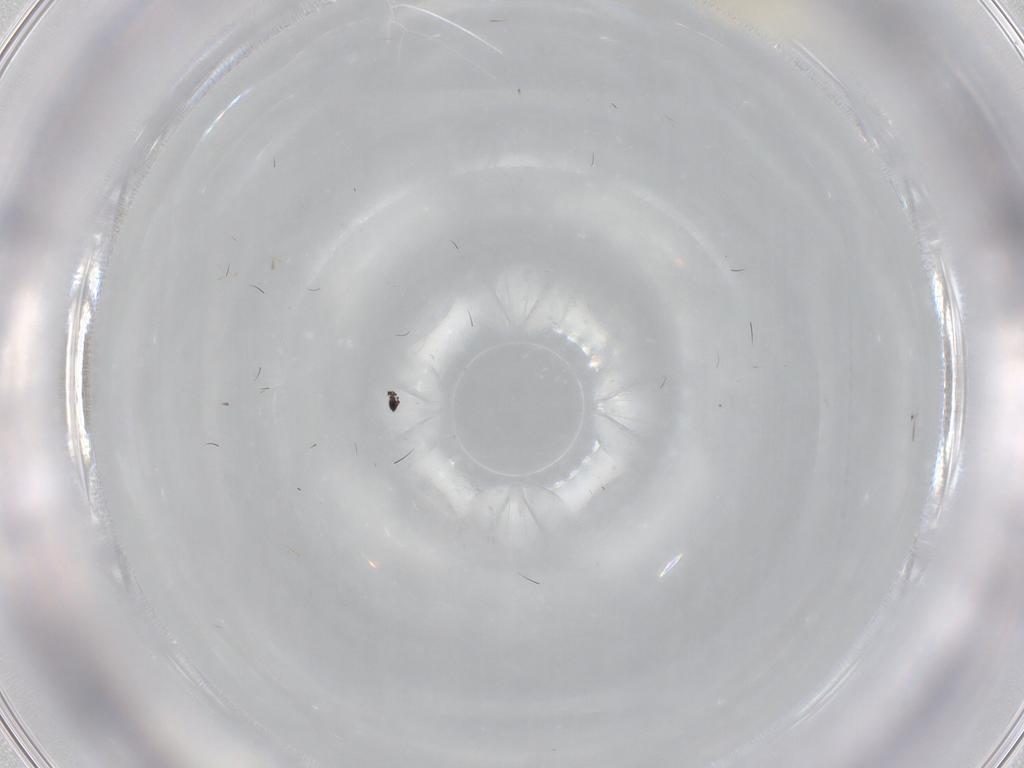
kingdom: Animalia
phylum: Arthropoda
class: Insecta
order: Diptera
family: Cecidomyiidae
